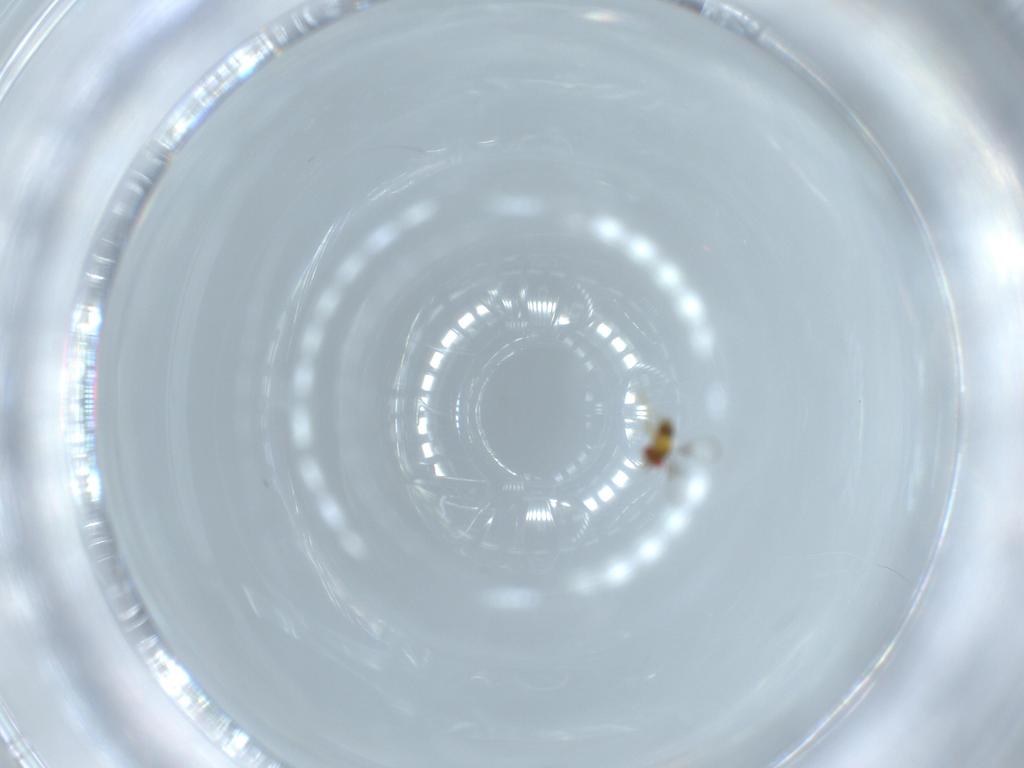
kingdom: Animalia
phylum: Arthropoda
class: Insecta
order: Hymenoptera
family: Trichogrammatidae
